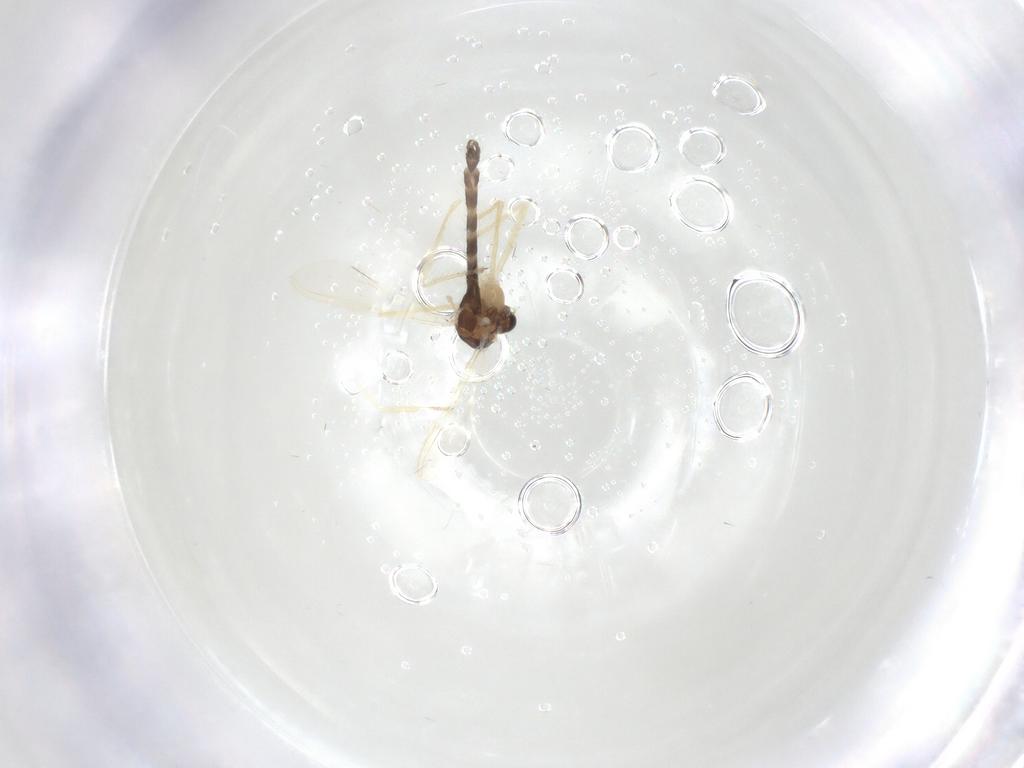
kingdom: Animalia
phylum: Arthropoda
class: Insecta
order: Diptera
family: Chironomidae
